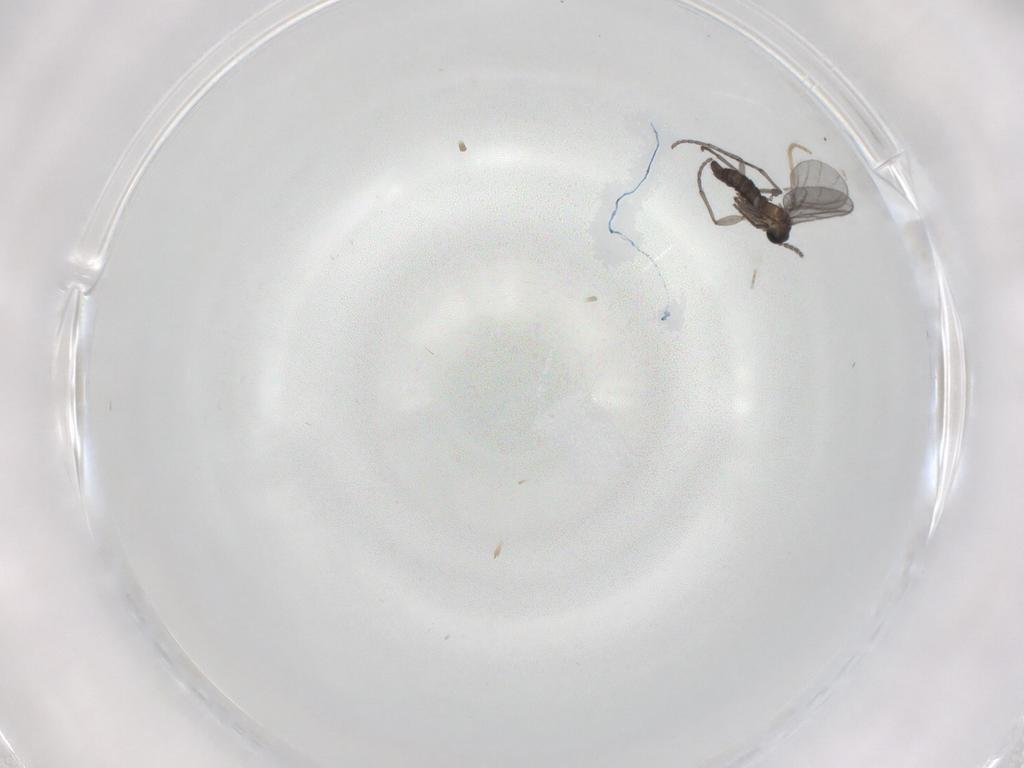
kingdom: Animalia
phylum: Arthropoda
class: Insecta
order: Diptera
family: Sciaridae
